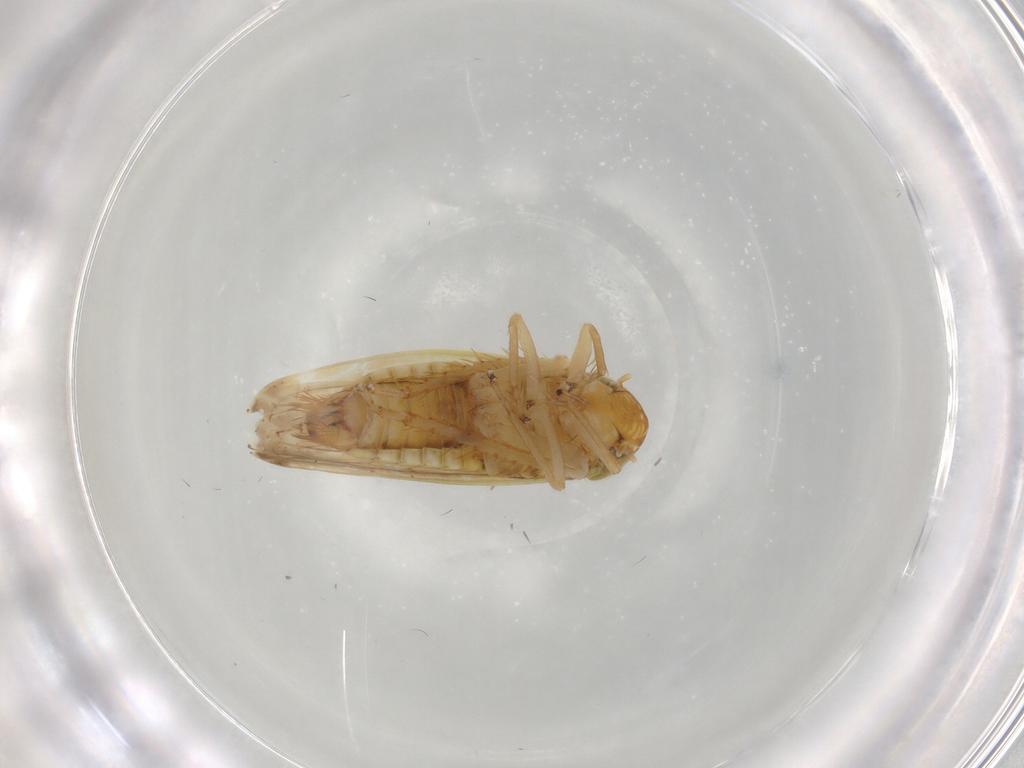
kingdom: Animalia
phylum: Arthropoda
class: Insecta
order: Hemiptera
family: Cicadellidae
